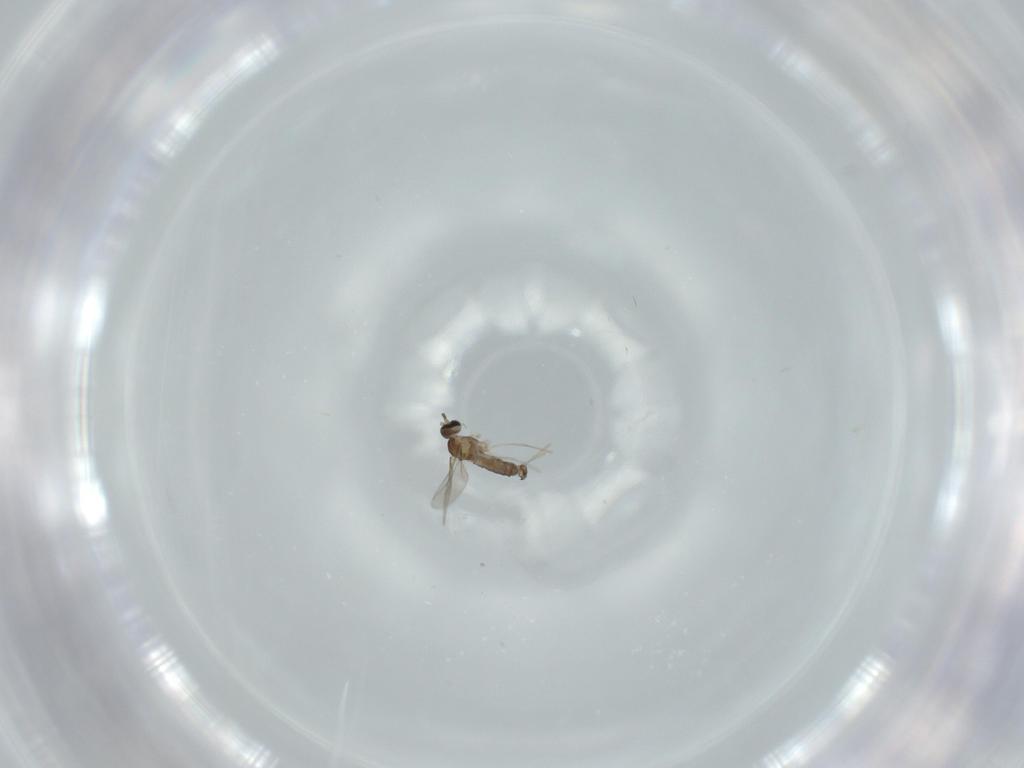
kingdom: Animalia
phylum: Arthropoda
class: Insecta
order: Diptera
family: Cecidomyiidae
